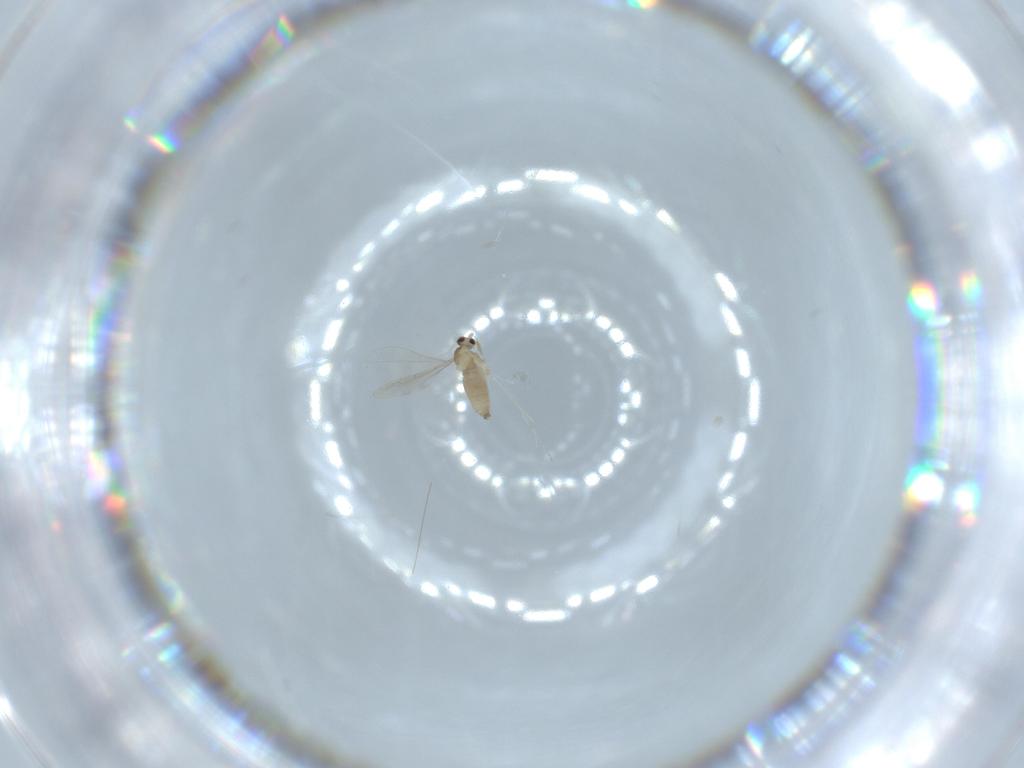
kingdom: Animalia
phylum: Arthropoda
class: Insecta
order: Diptera
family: Cecidomyiidae
